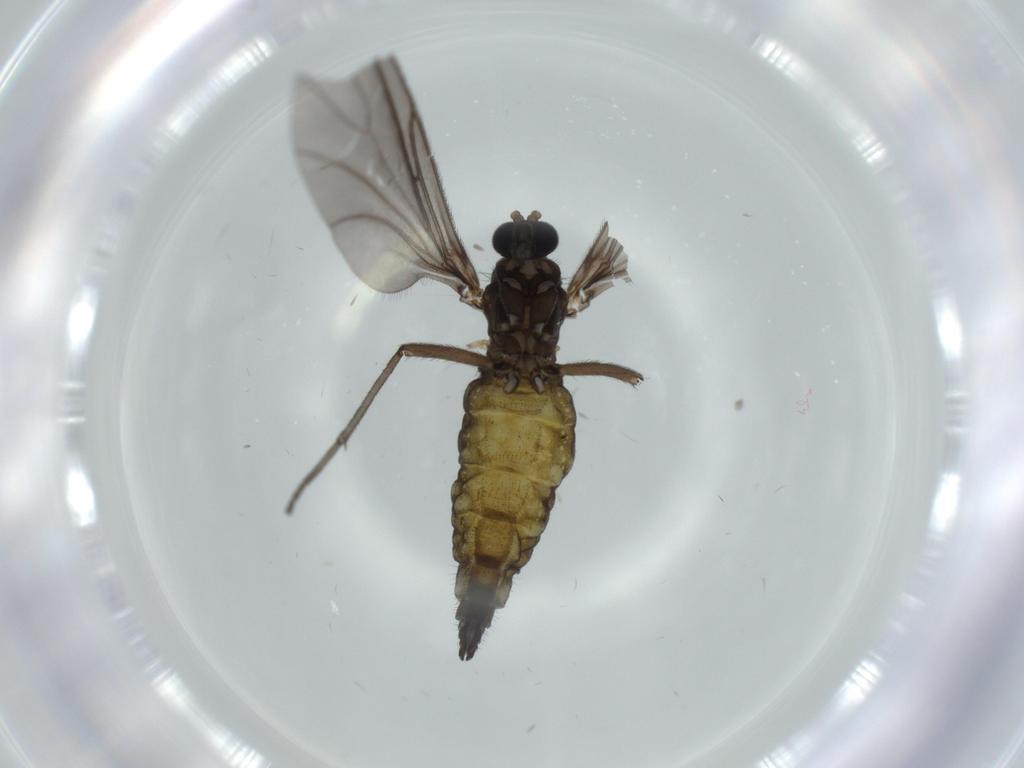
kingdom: Animalia
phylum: Arthropoda
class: Insecta
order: Diptera
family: Sciaridae
